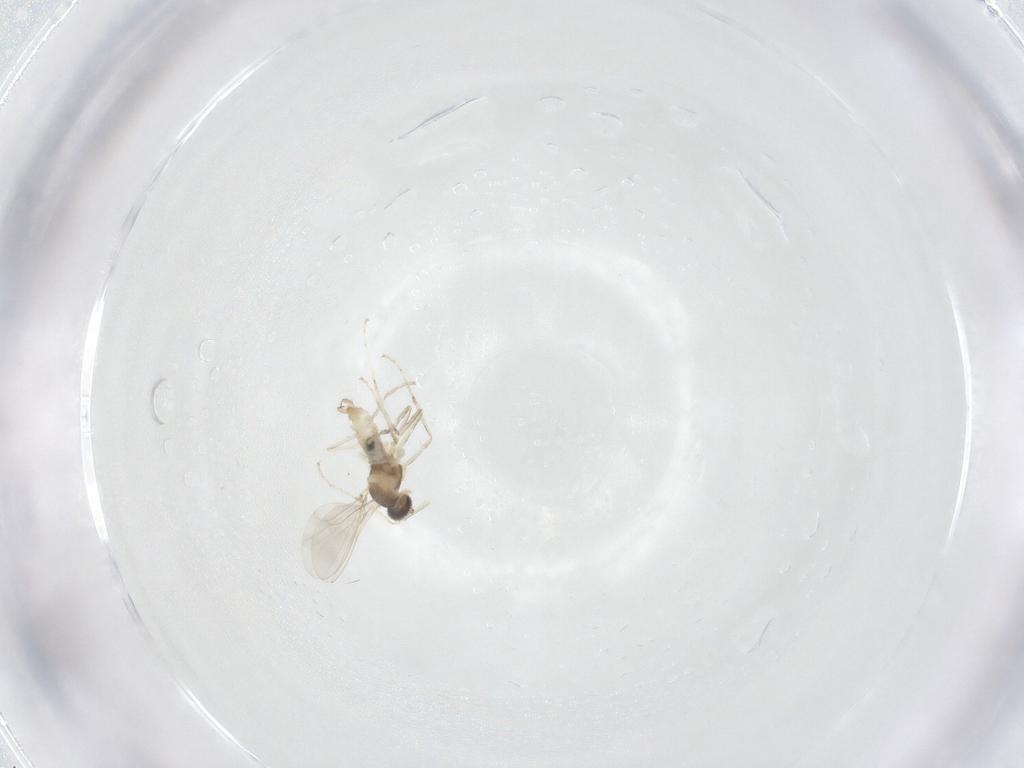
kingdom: Animalia
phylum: Arthropoda
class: Insecta
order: Diptera
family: Cecidomyiidae
